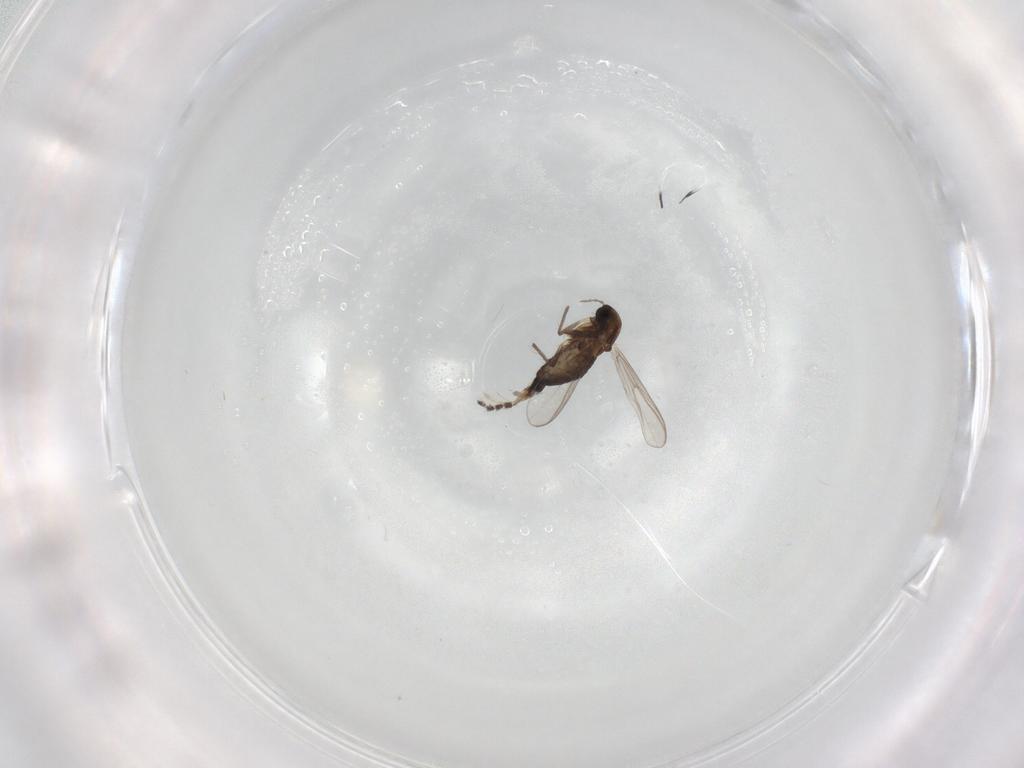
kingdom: Animalia
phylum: Arthropoda
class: Insecta
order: Diptera
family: Chironomidae
